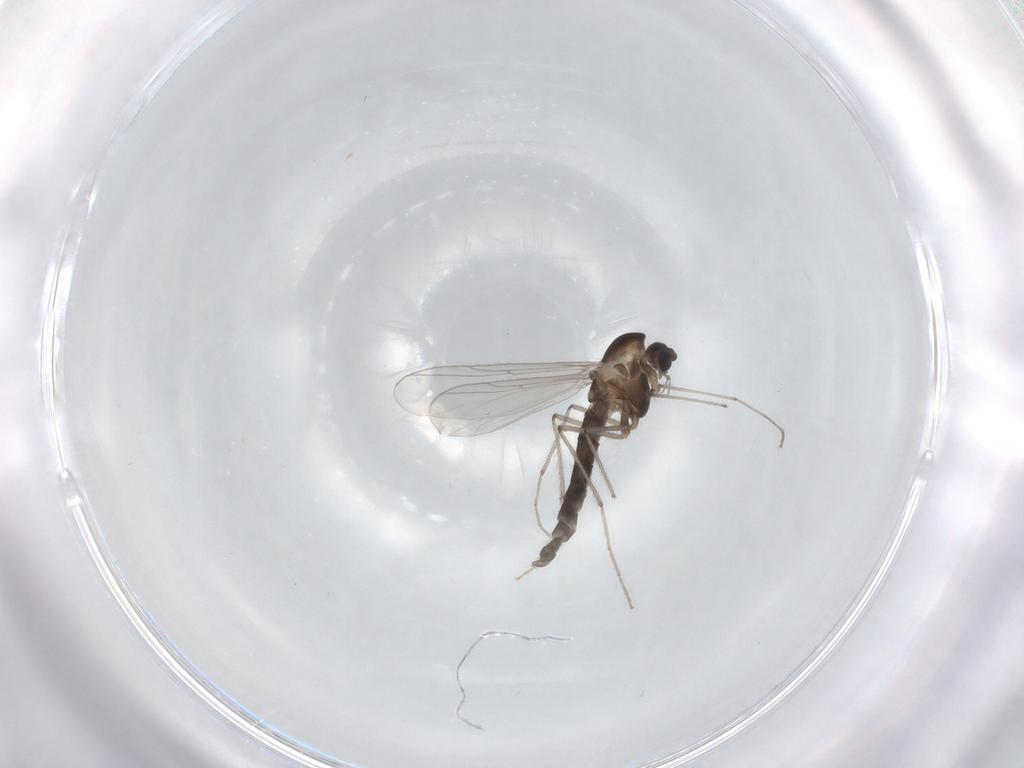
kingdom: Animalia
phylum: Arthropoda
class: Insecta
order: Diptera
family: Chironomidae
